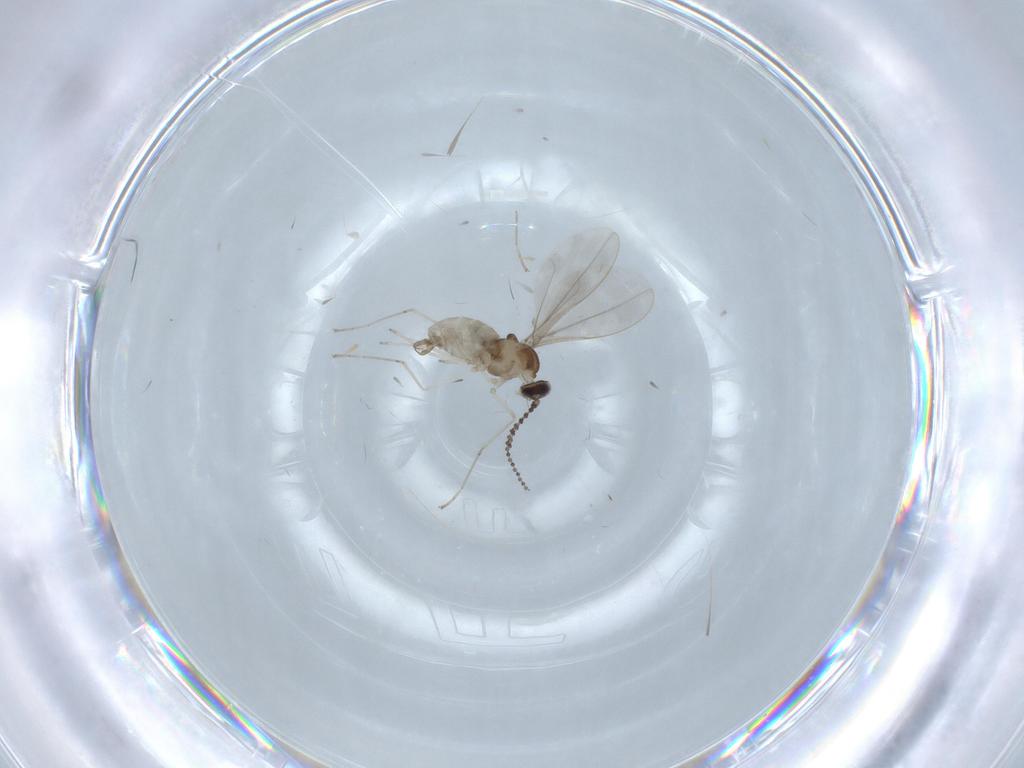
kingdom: Animalia
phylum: Arthropoda
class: Insecta
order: Diptera
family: Cecidomyiidae
